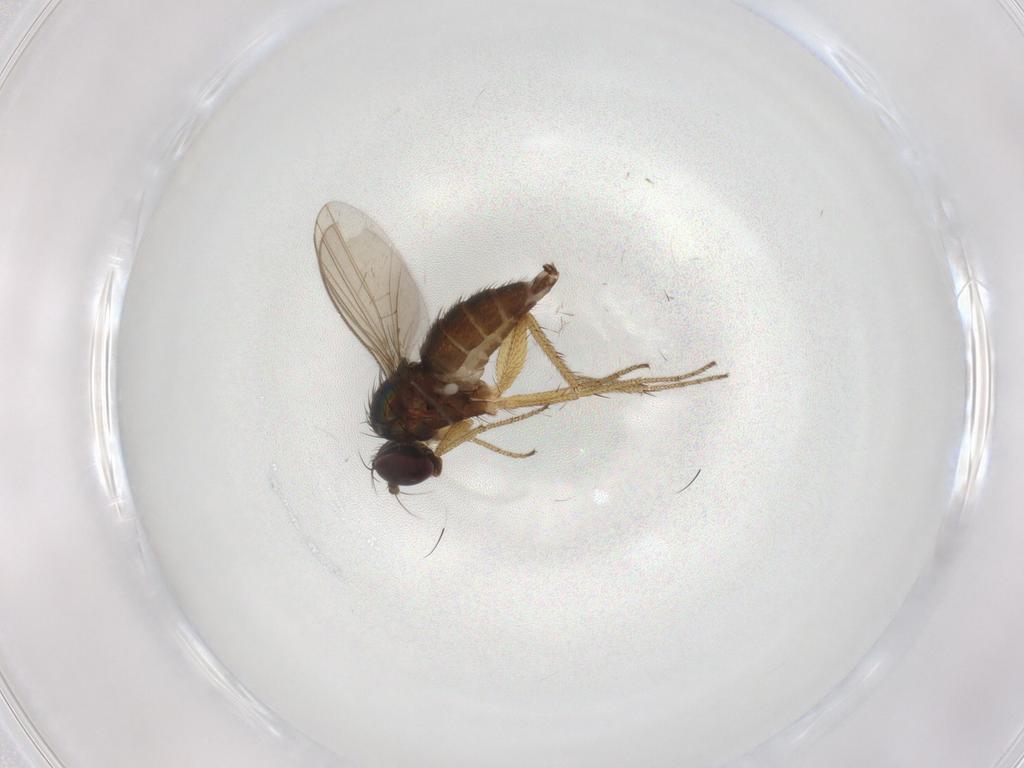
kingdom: Animalia
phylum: Arthropoda
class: Insecta
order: Diptera
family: Dolichopodidae
